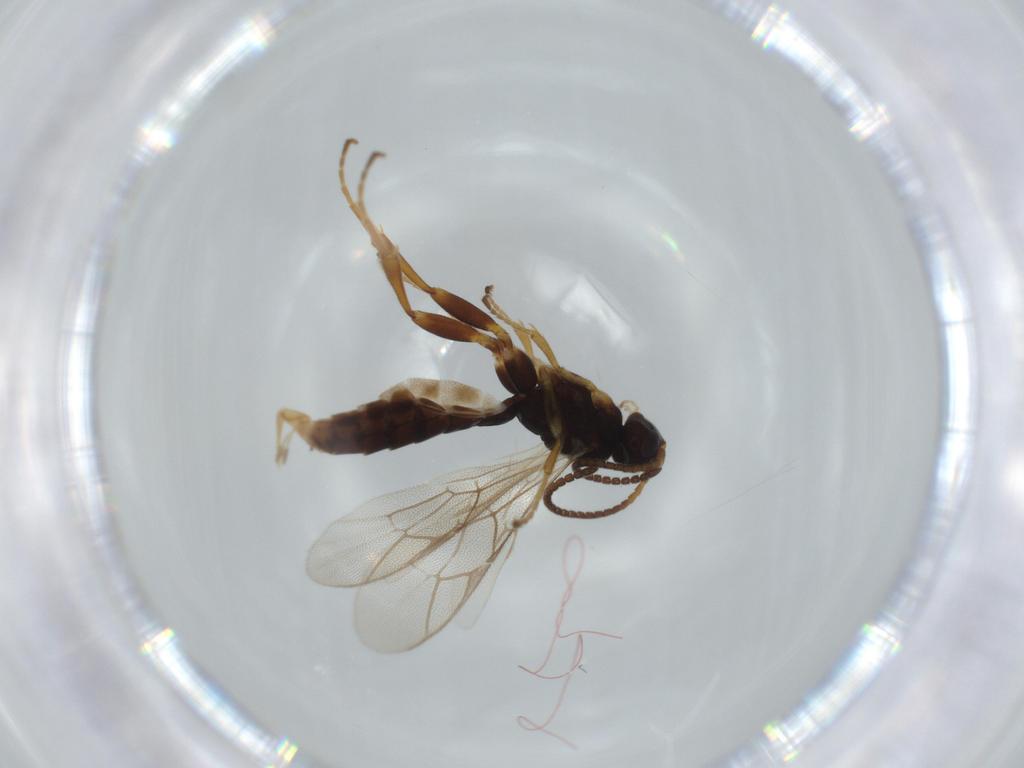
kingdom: Animalia
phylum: Arthropoda
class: Insecta
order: Hymenoptera
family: Ichneumonidae
